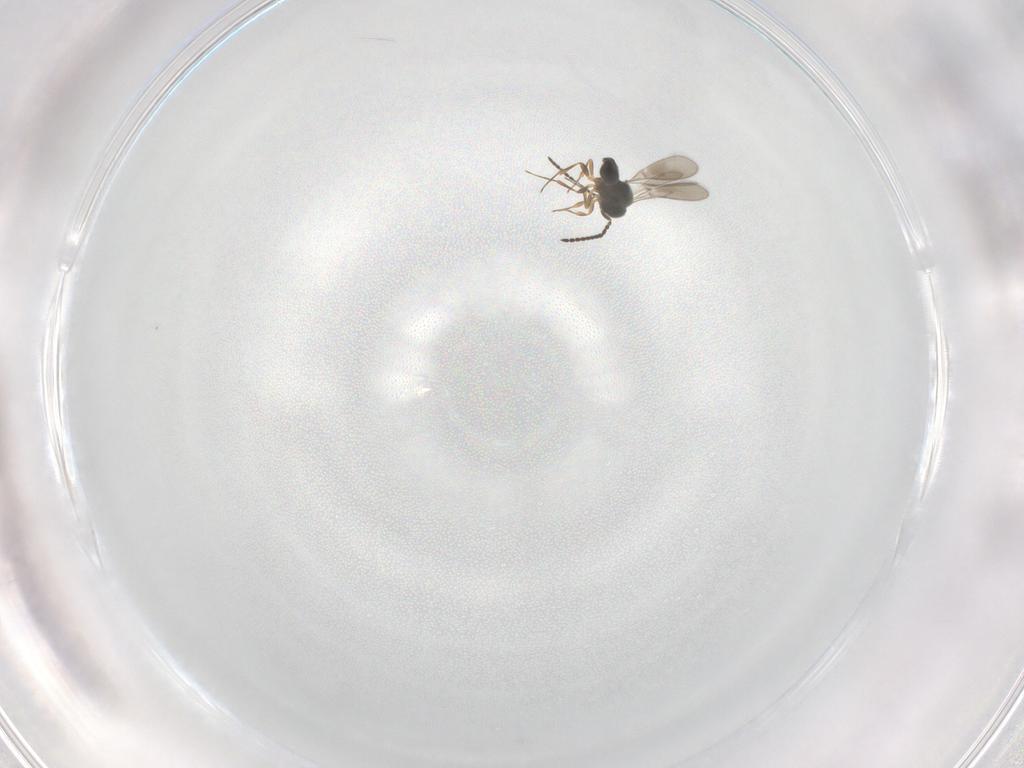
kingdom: Animalia
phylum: Arthropoda
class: Insecta
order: Hymenoptera
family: Scelionidae
